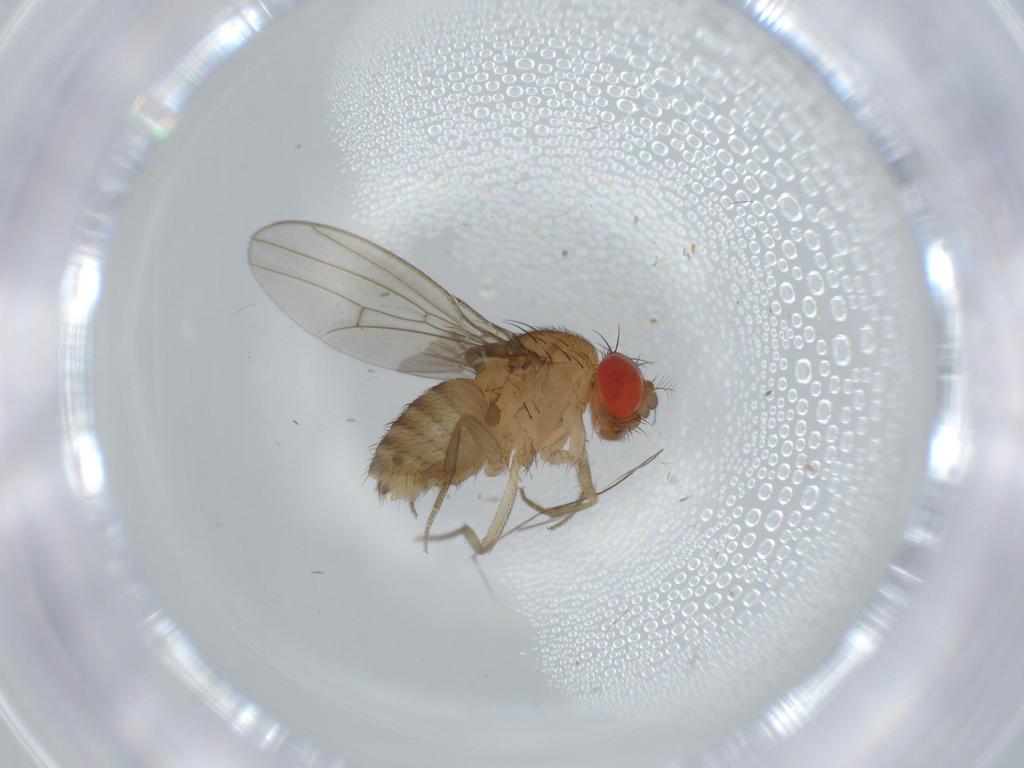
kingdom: Animalia
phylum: Arthropoda
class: Insecta
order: Diptera
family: Drosophilidae
